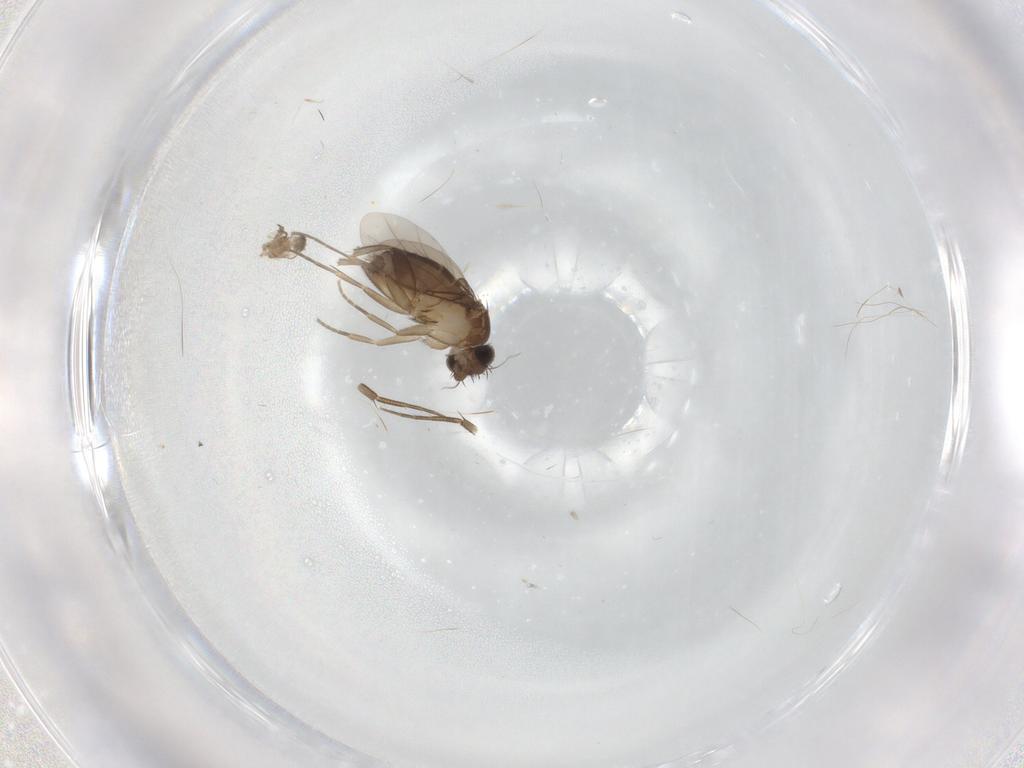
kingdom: Animalia
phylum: Arthropoda
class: Insecta
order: Diptera
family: Phoridae
